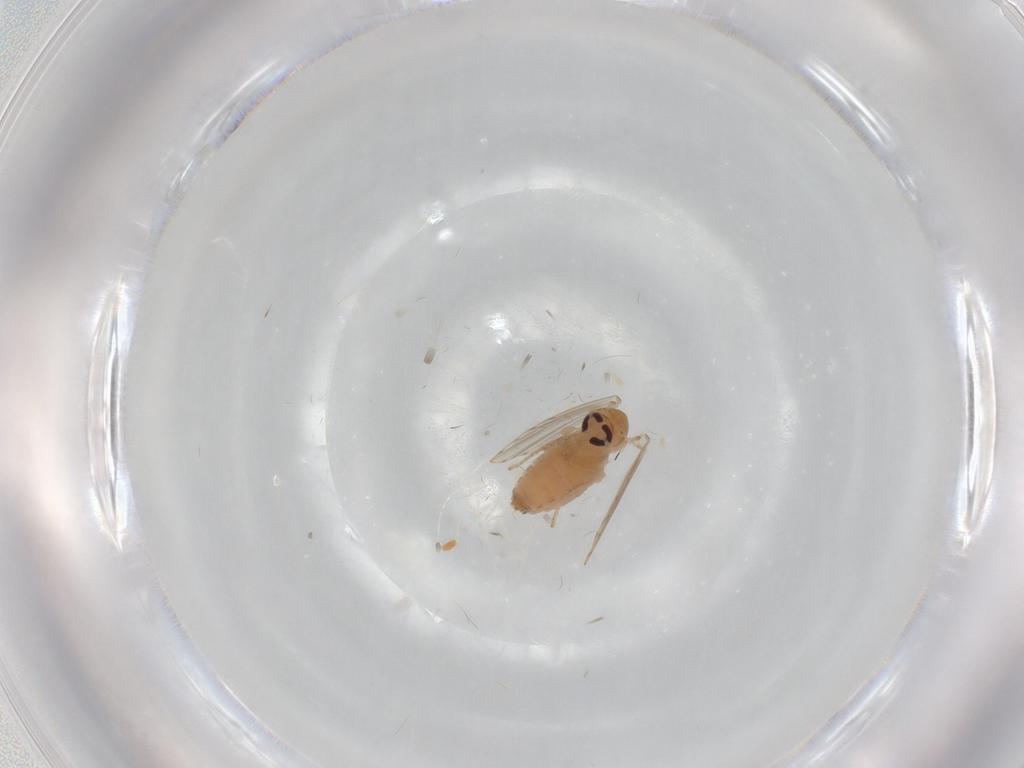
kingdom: Animalia
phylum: Arthropoda
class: Insecta
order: Diptera
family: Psychodidae
